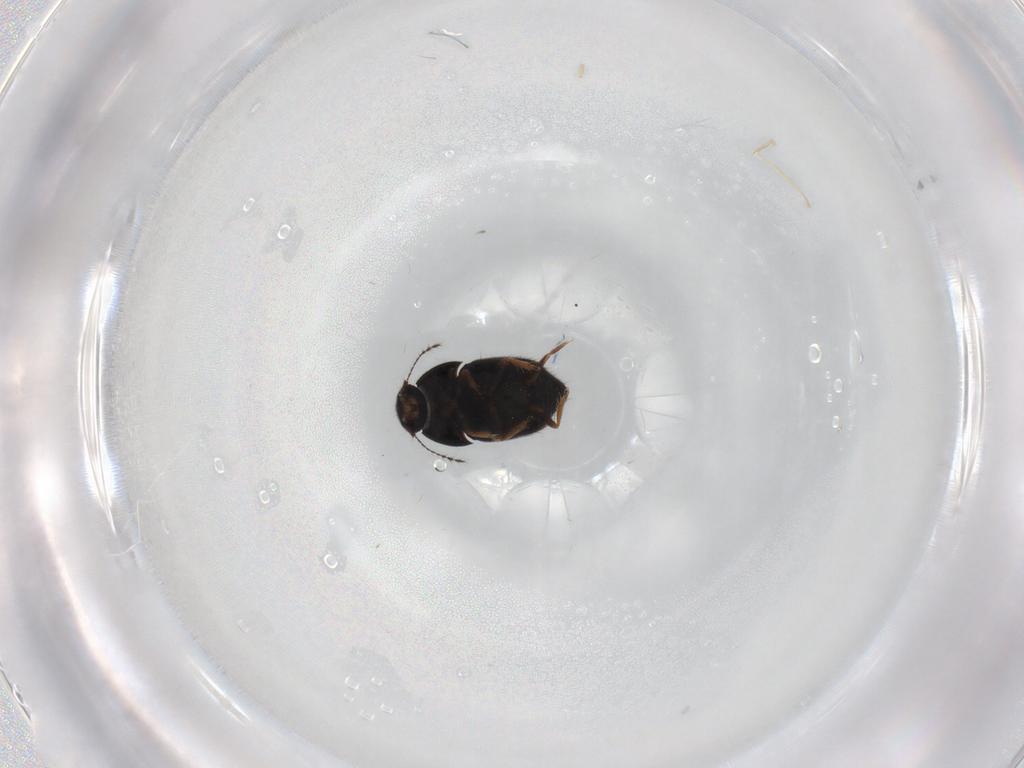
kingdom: Animalia
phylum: Arthropoda
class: Insecta
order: Coleoptera
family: Ptiliidae
